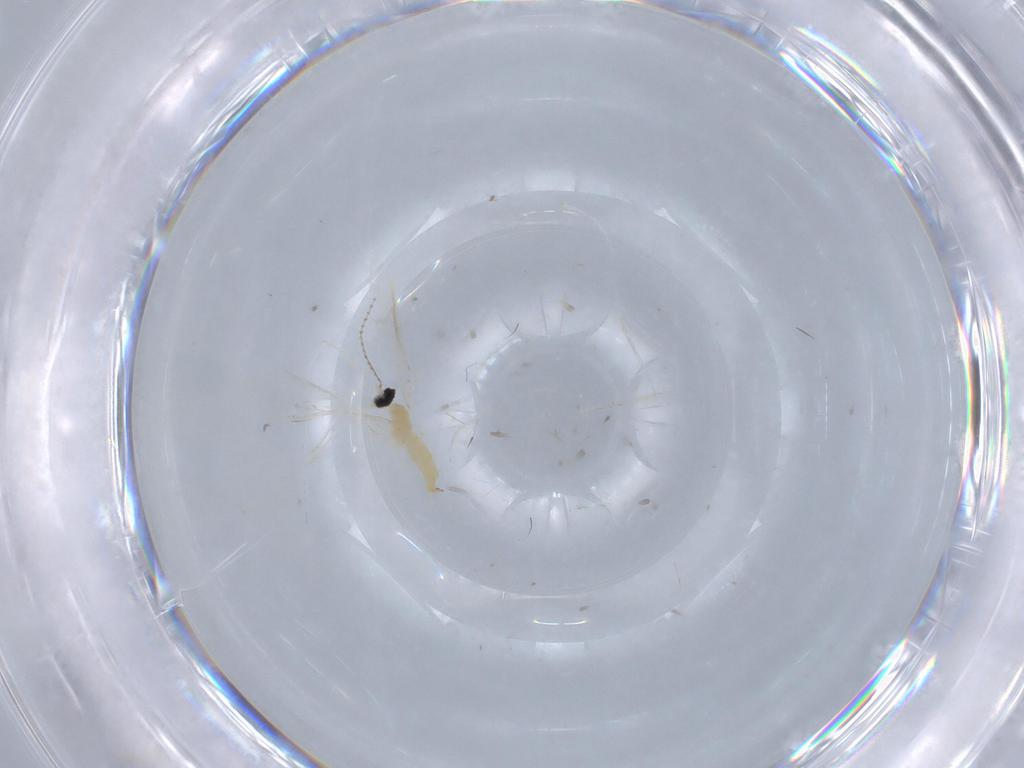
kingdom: Animalia
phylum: Arthropoda
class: Insecta
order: Diptera
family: Cecidomyiidae
